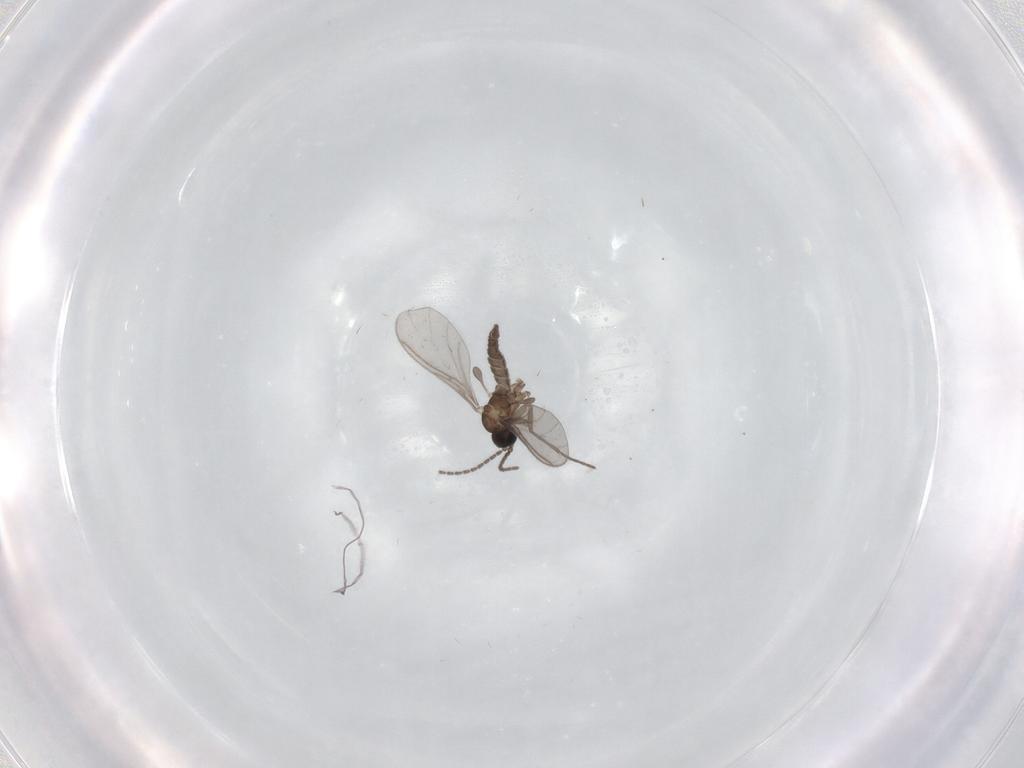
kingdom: Animalia
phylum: Arthropoda
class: Insecta
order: Diptera
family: Sciaridae
